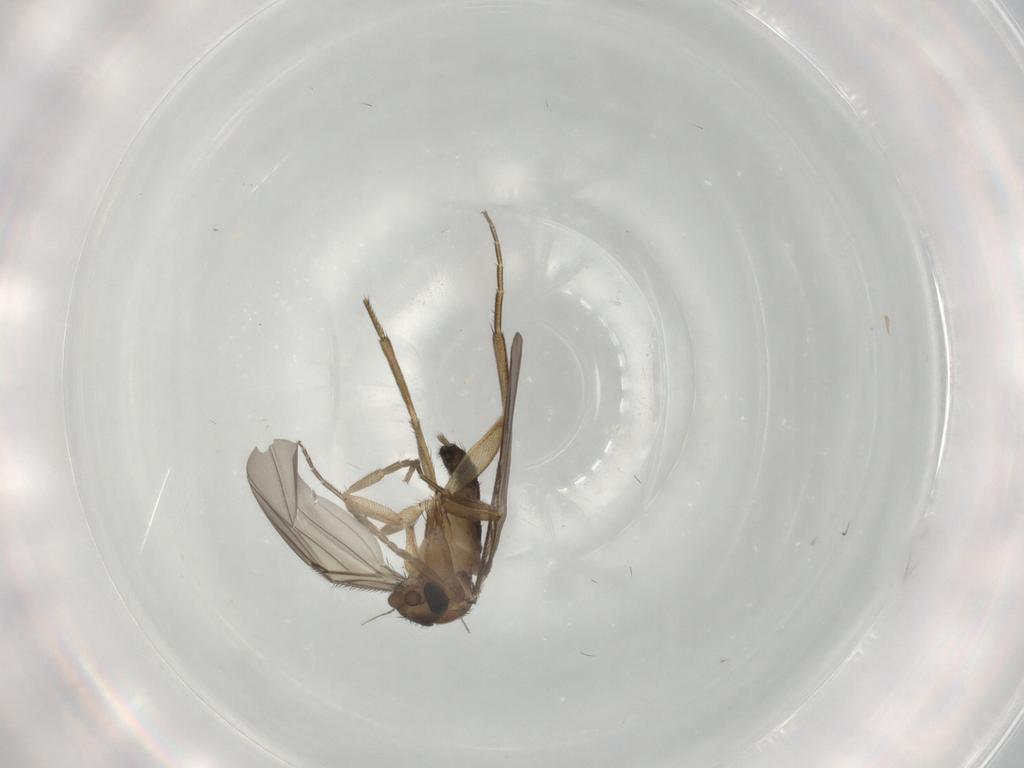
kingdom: Animalia
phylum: Arthropoda
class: Insecta
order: Diptera
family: Phoridae
